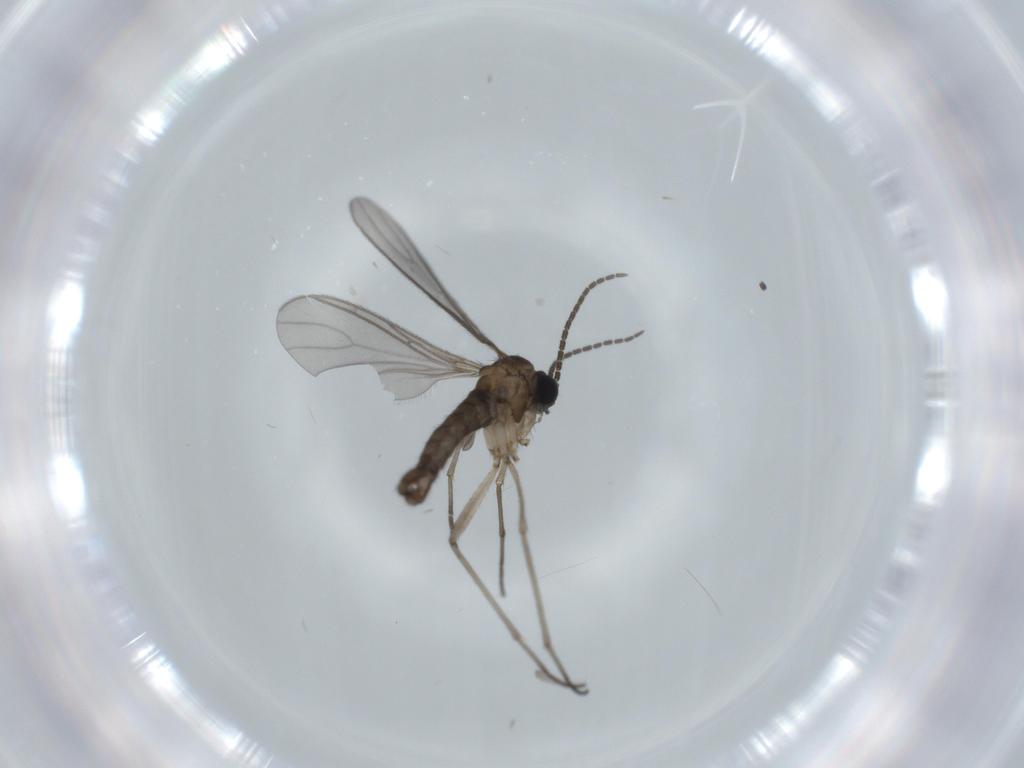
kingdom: Animalia
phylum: Arthropoda
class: Insecta
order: Diptera
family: Sciaridae
